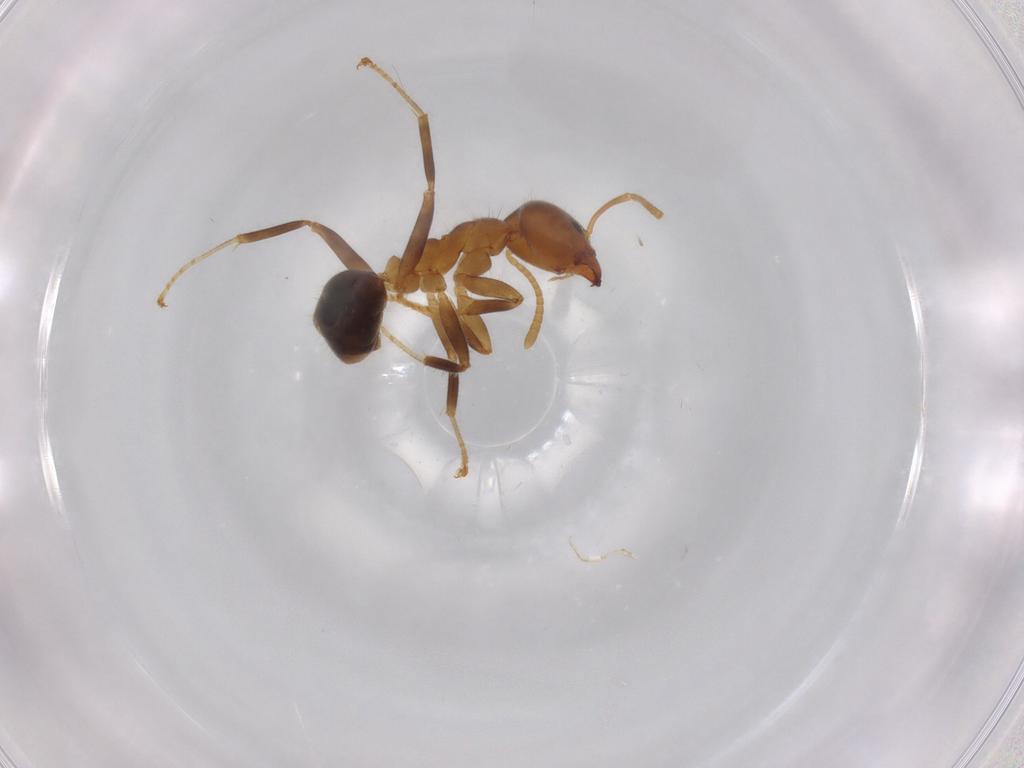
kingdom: Animalia
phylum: Arthropoda
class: Insecta
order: Hymenoptera
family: Formicidae
